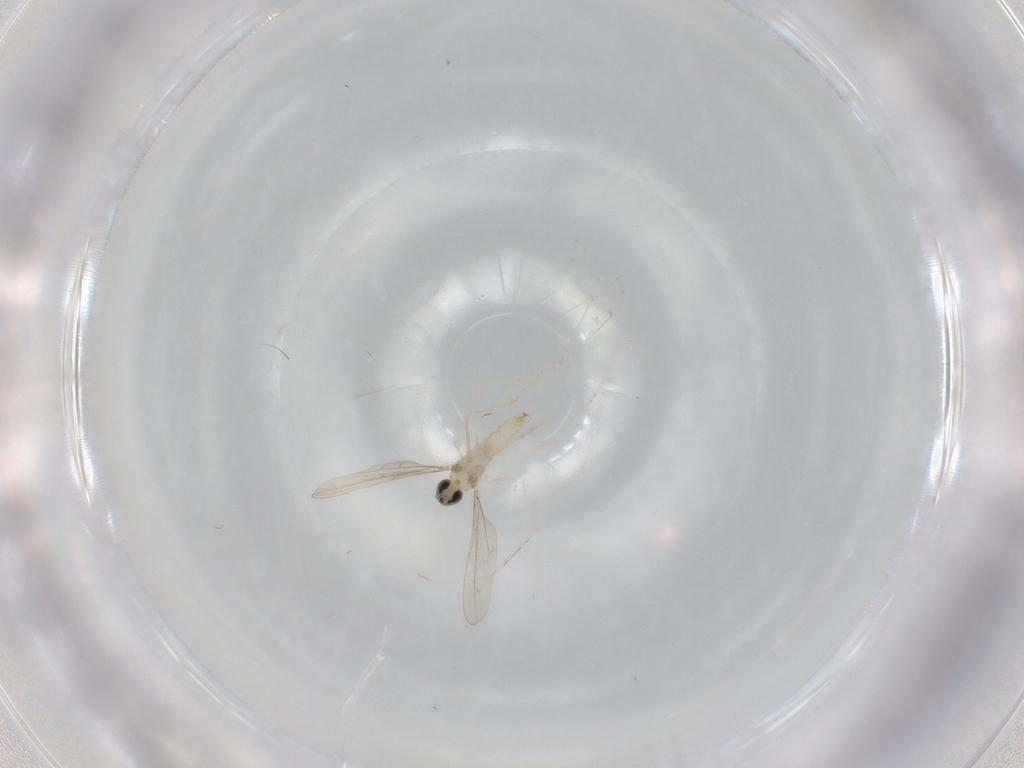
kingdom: Animalia
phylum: Arthropoda
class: Insecta
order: Diptera
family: Cecidomyiidae
